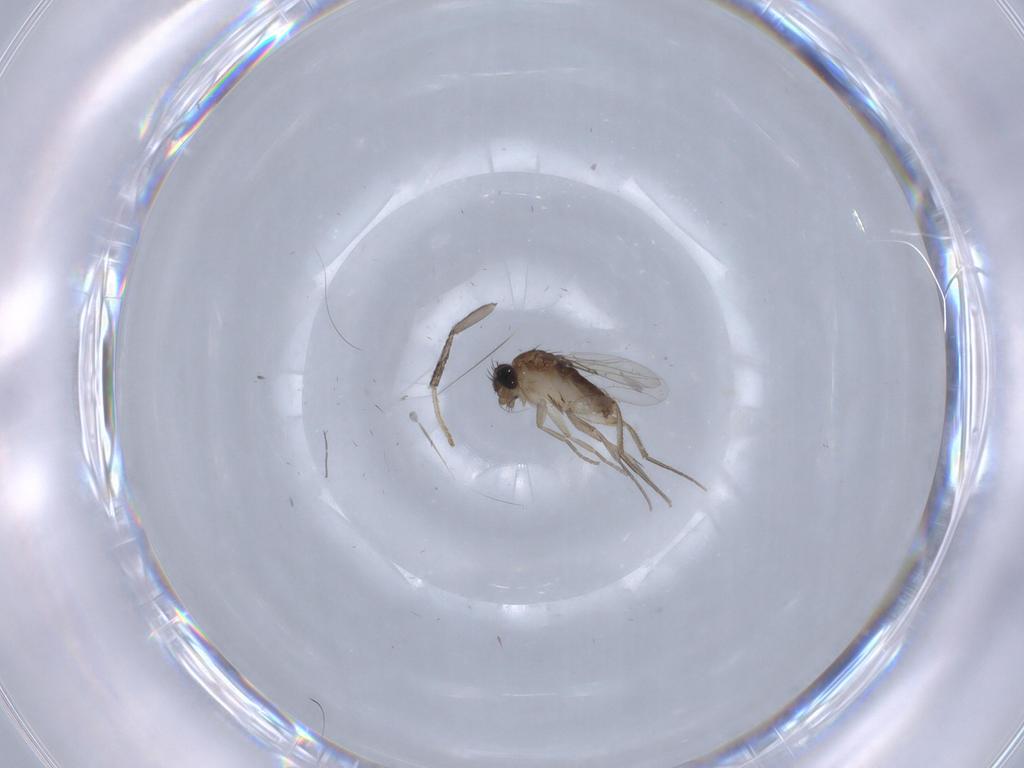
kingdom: Animalia
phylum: Arthropoda
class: Insecta
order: Diptera
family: Psychodidae
